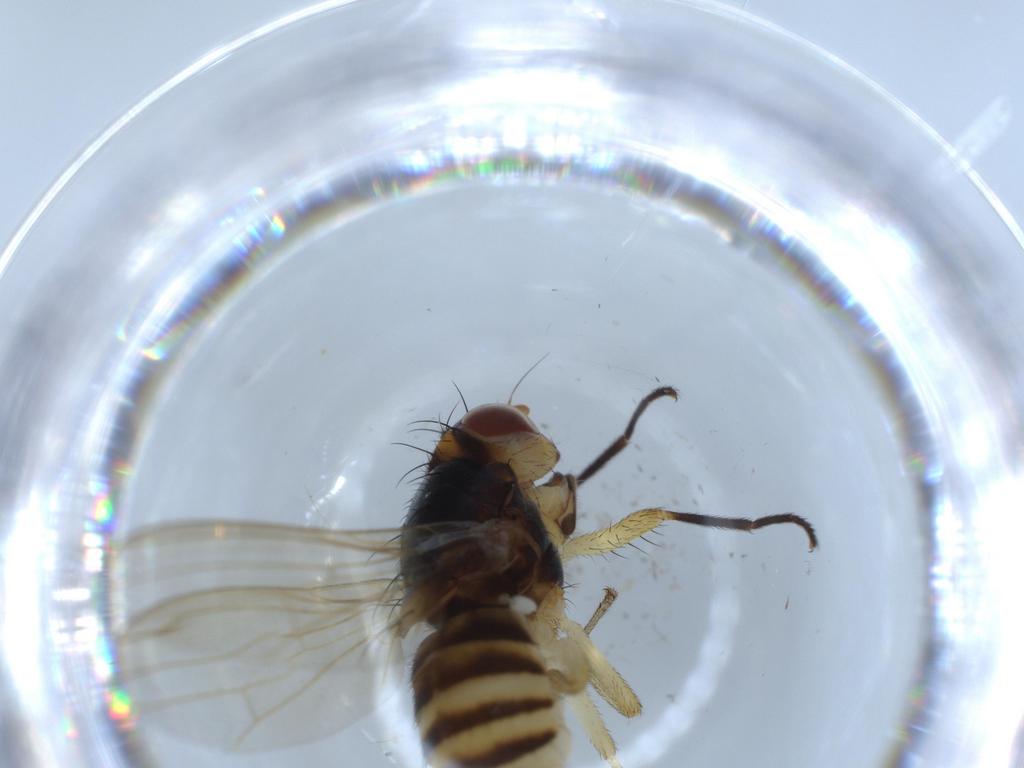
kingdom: Animalia
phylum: Arthropoda
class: Insecta
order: Diptera
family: Lauxaniidae
